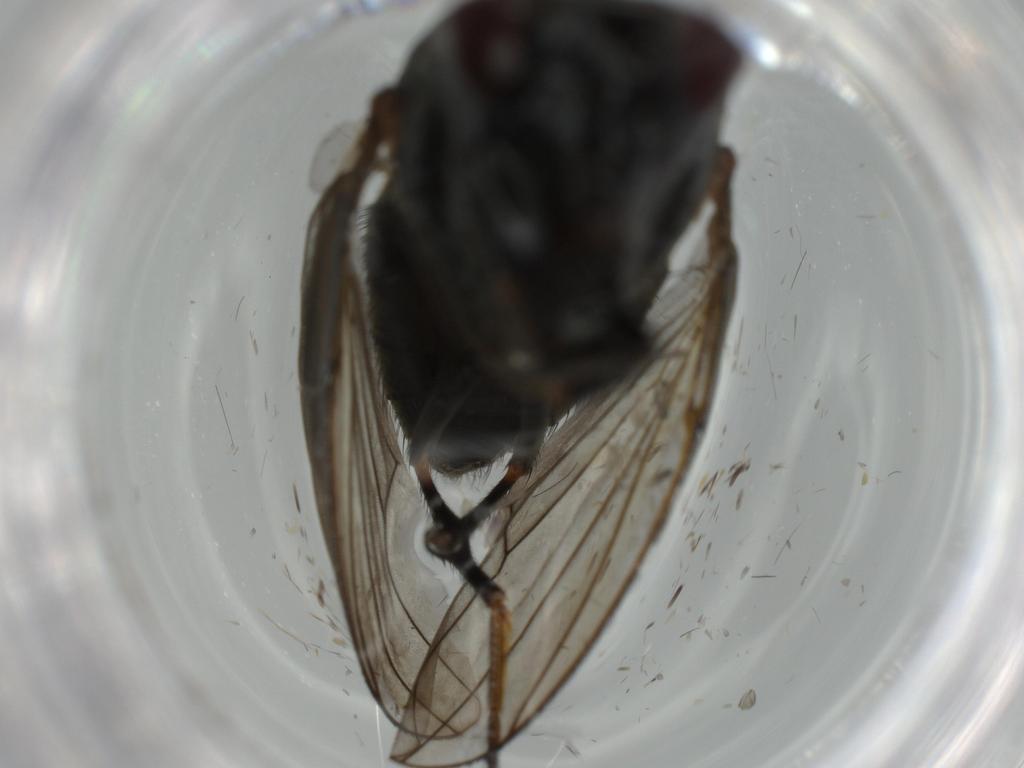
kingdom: Animalia
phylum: Arthropoda
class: Insecta
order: Diptera
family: Ephydridae
